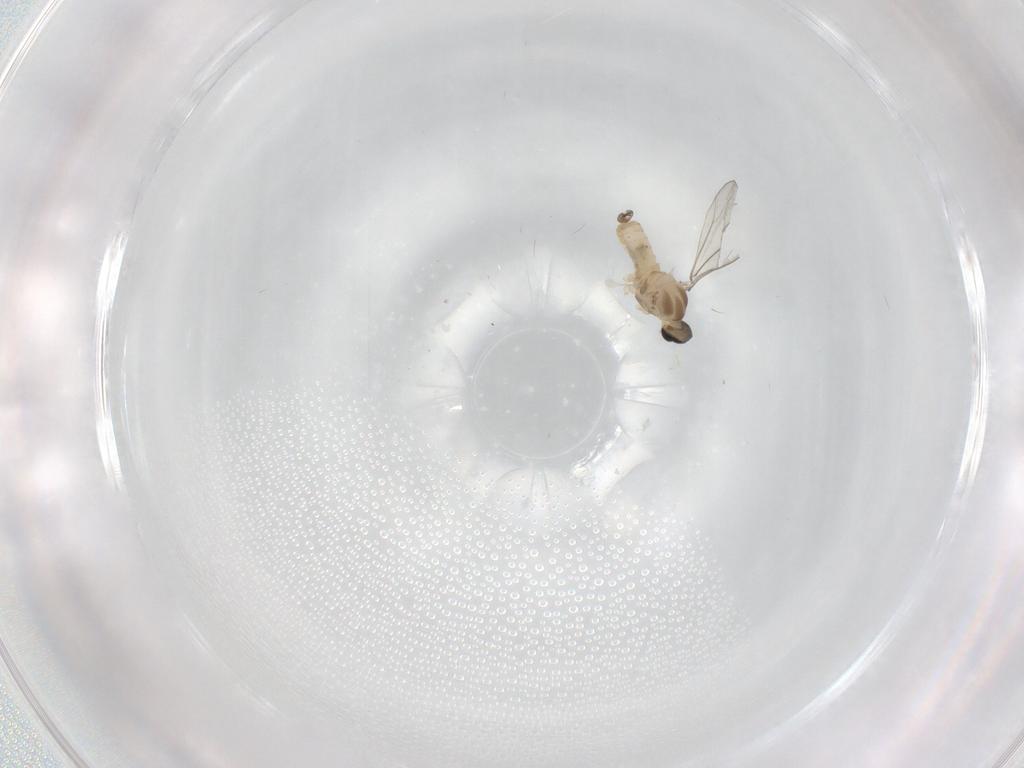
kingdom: Animalia
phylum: Arthropoda
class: Insecta
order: Diptera
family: Cecidomyiidae
